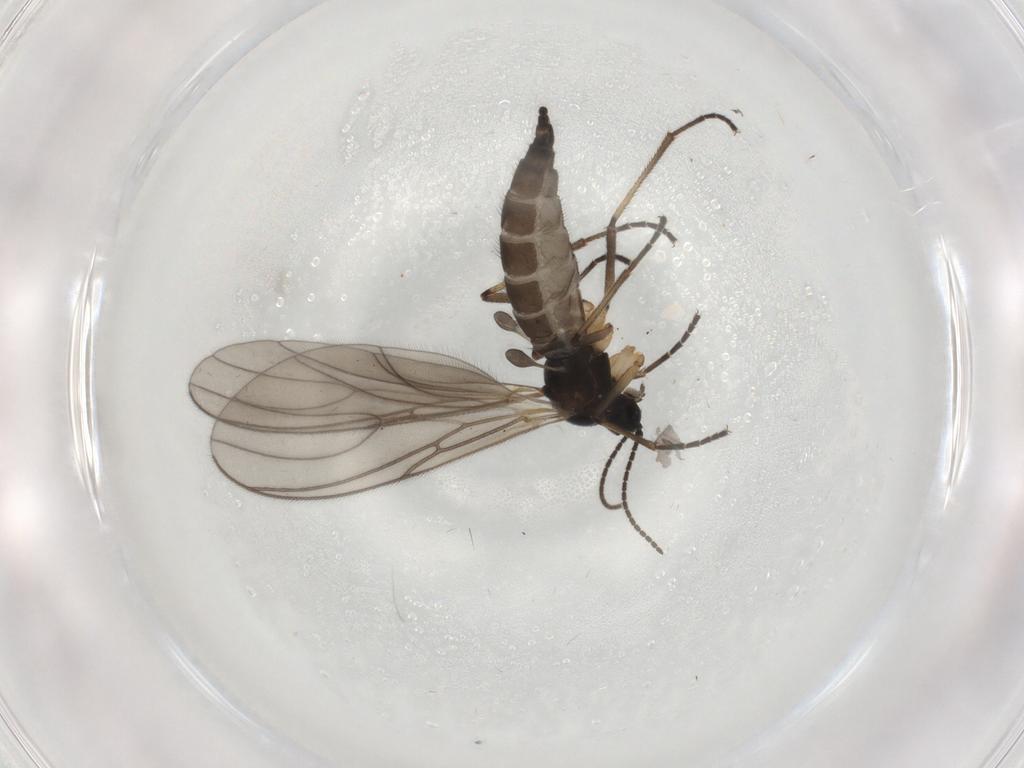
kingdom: Animalia
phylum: Arthropoda
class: Insecta
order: Diptera
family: Sciaridae
